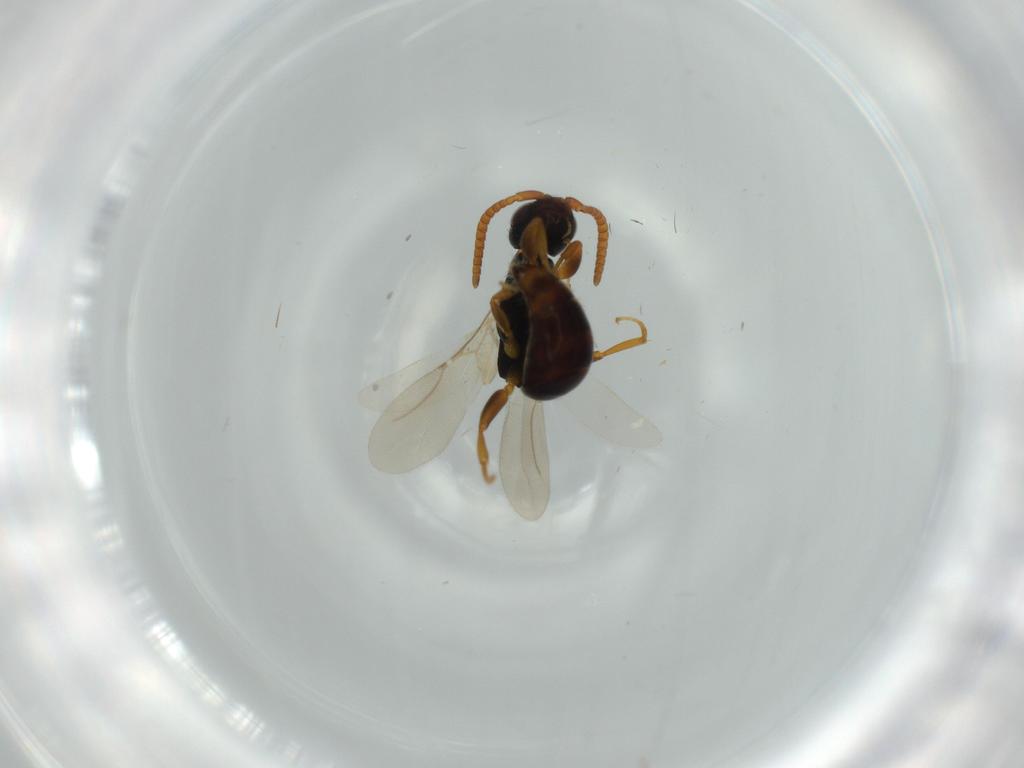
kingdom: Animalia
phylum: Arthropoda
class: Insecta
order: Hymenoptera
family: Bethylidae
